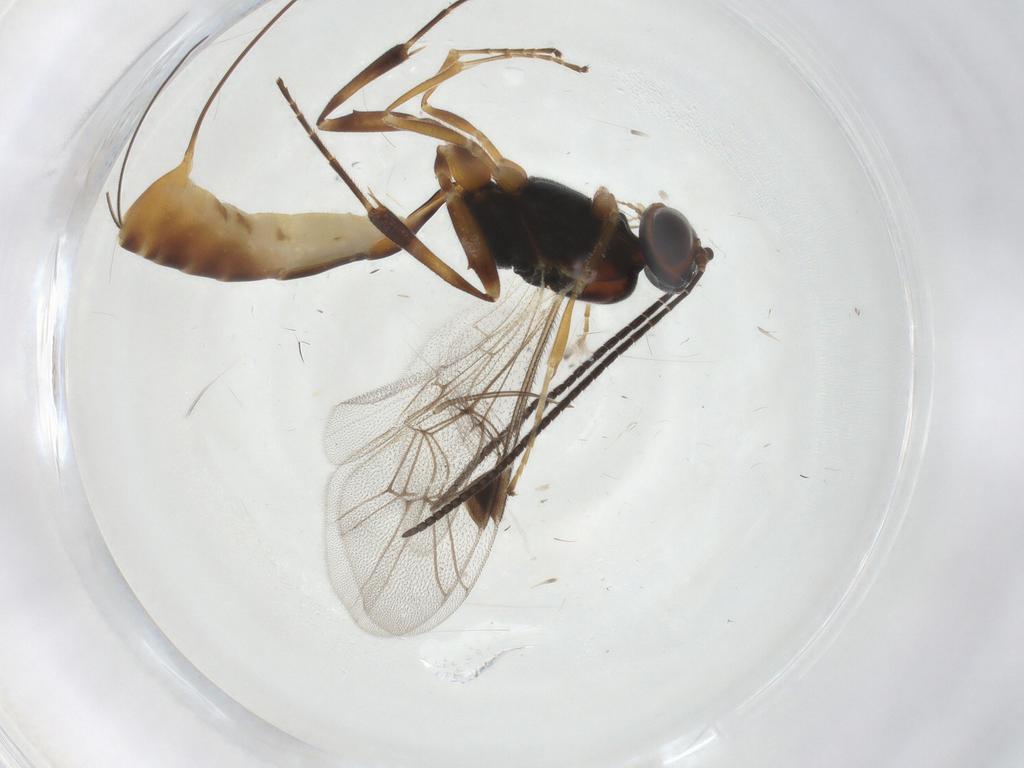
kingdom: Animalia
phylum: Arthropoda
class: Insecta
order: Hymenoptera
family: Ichneumonidae
